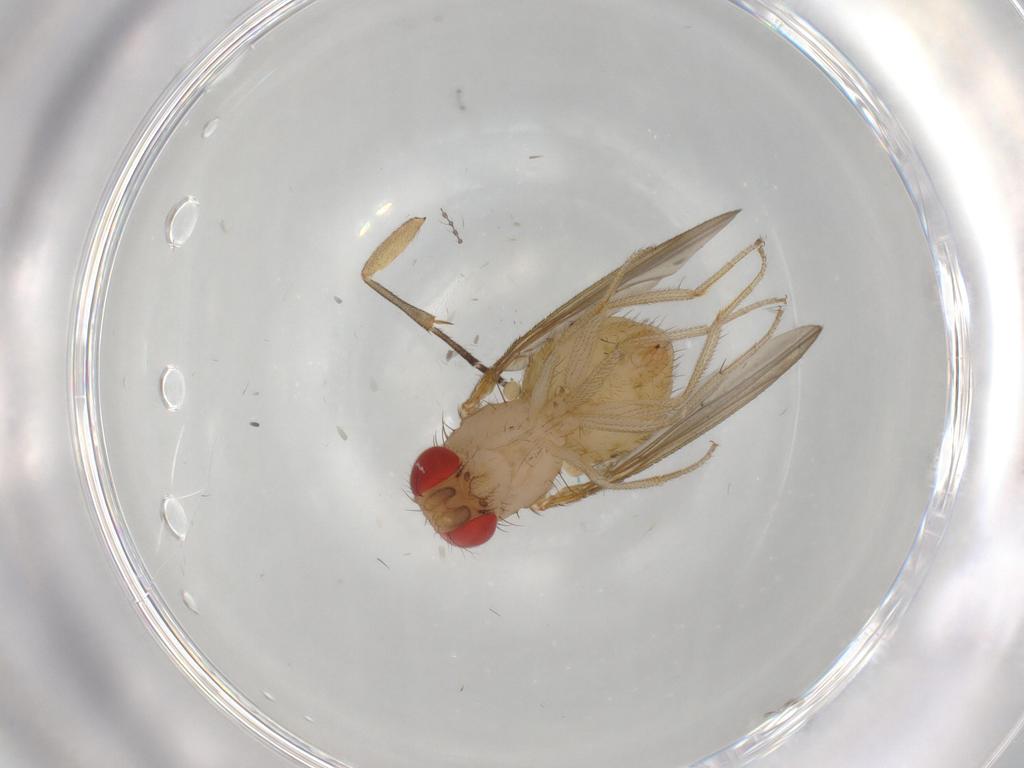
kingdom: Animalia
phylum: Arthropoda
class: Insecta
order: Diptera
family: Drosophilidae
